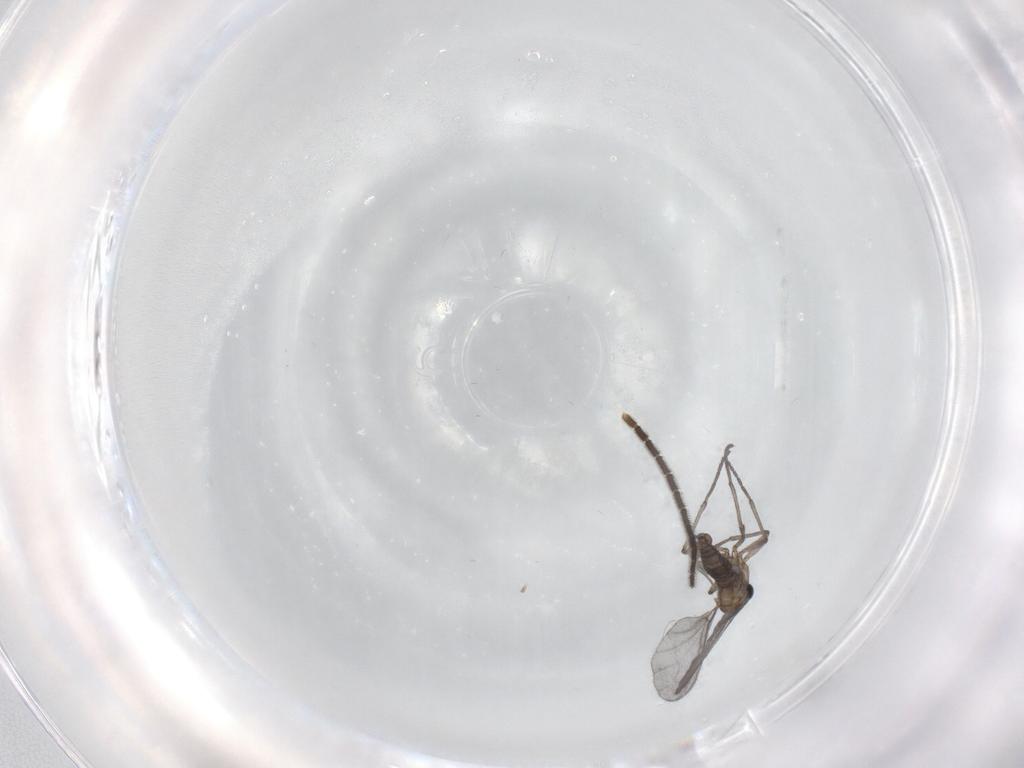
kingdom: Animalia
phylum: Arthropoda
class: Insecta
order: Diptera
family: Sciaridae
